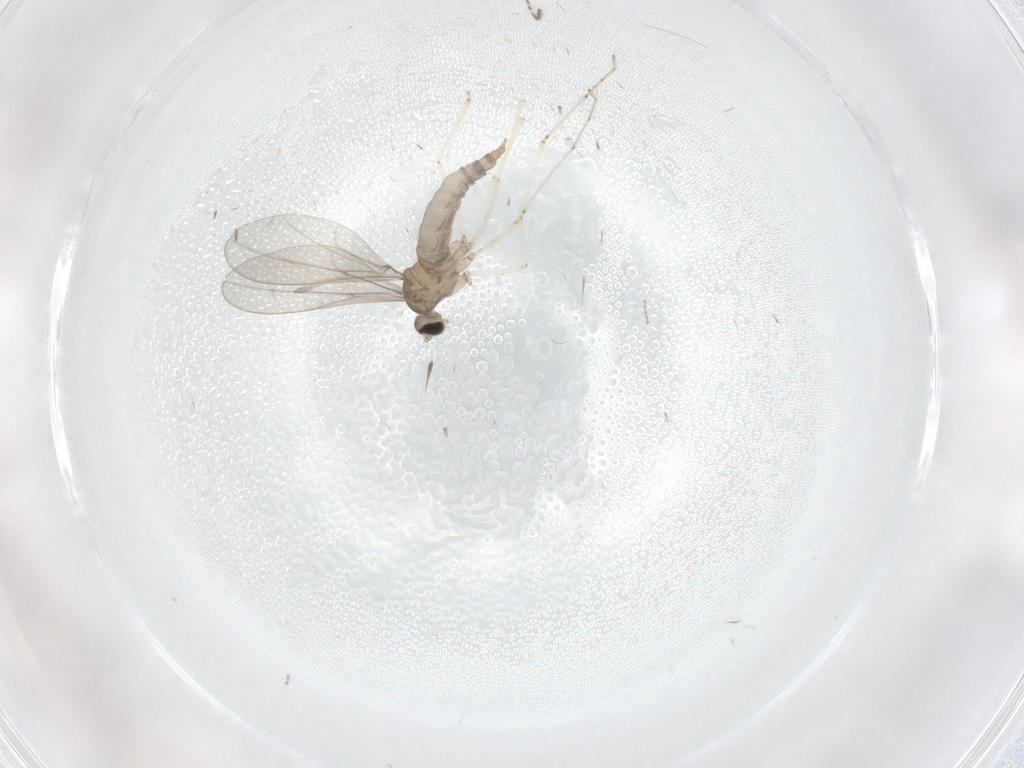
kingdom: Animalia
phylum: Arthropoda
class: Insecta
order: Diptera
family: Cecidomyiidae
